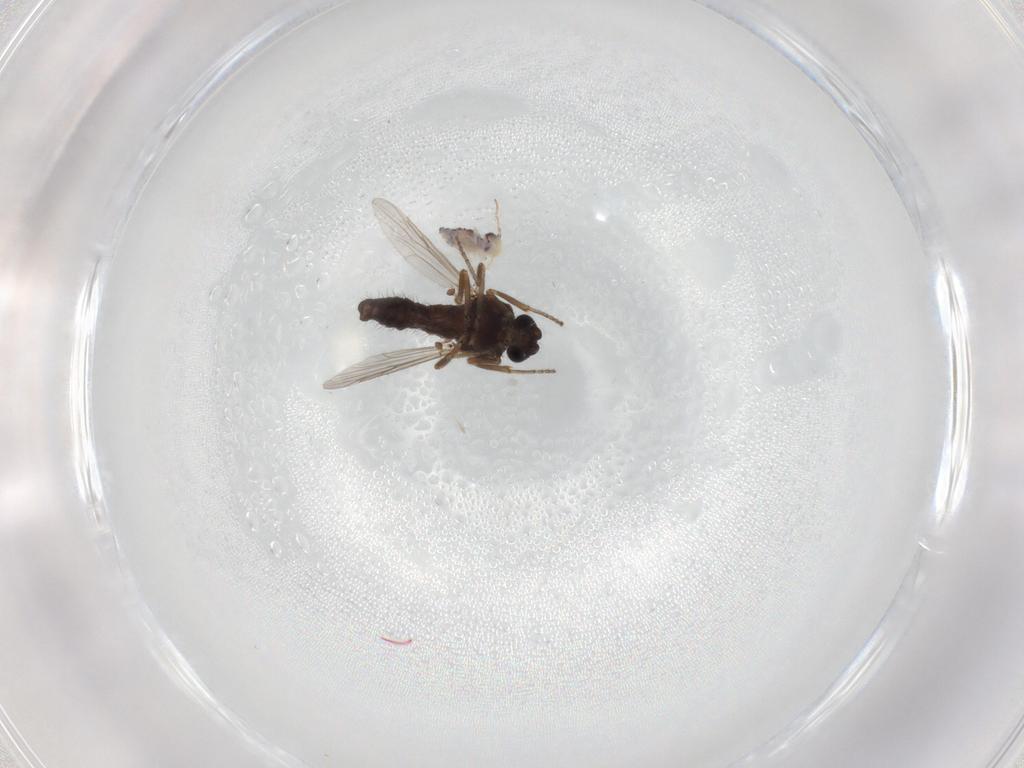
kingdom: Animalia
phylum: Arthropoda
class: Insecta
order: Diptera
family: Ceratopogonidae
